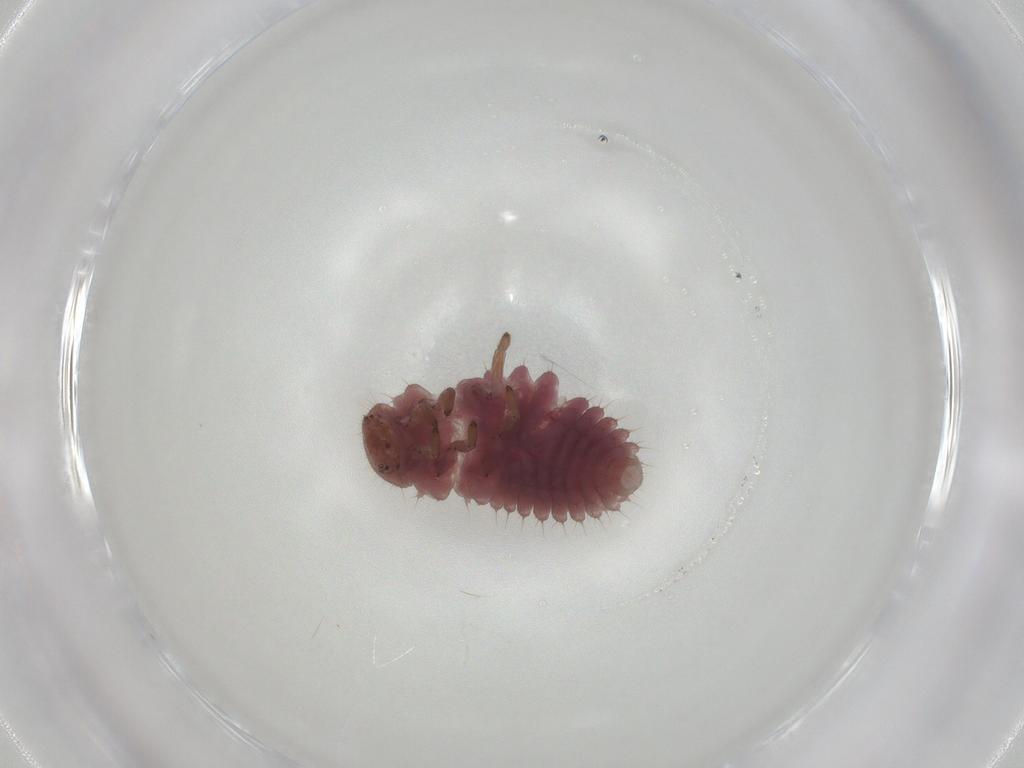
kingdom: Animalia
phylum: Arthropoda
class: Insecta
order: Coleoptera
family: Coccinellidae
